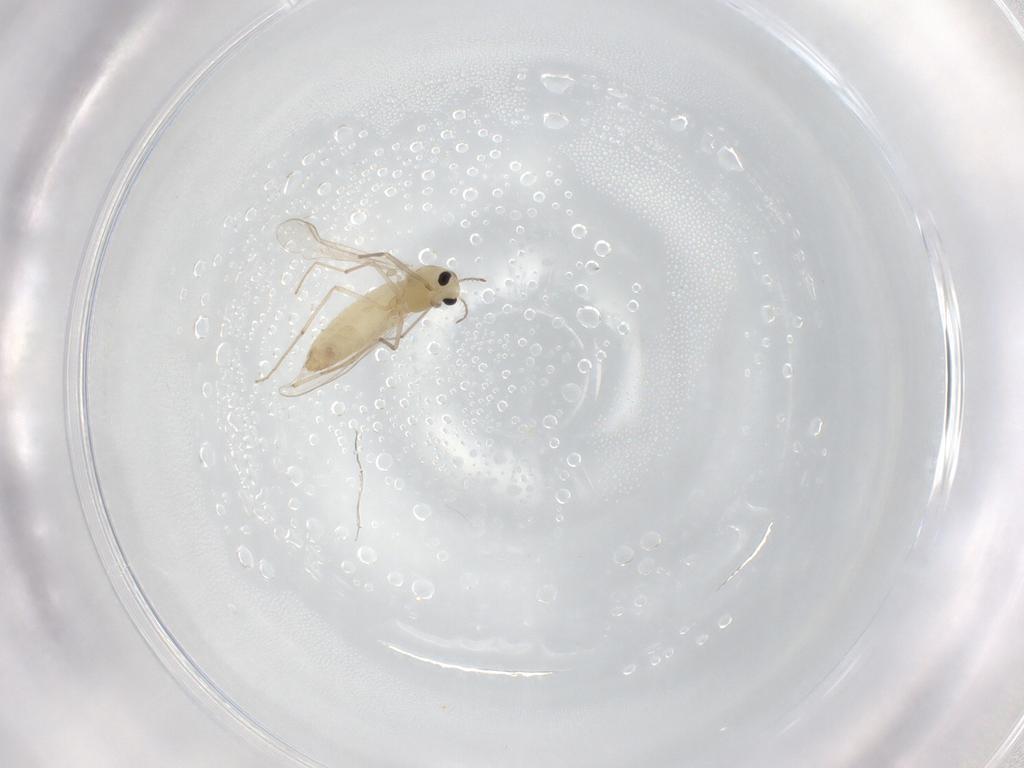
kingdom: Animalia
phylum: Arthropoda
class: Insecta
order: Diptera
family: Chironomidae
